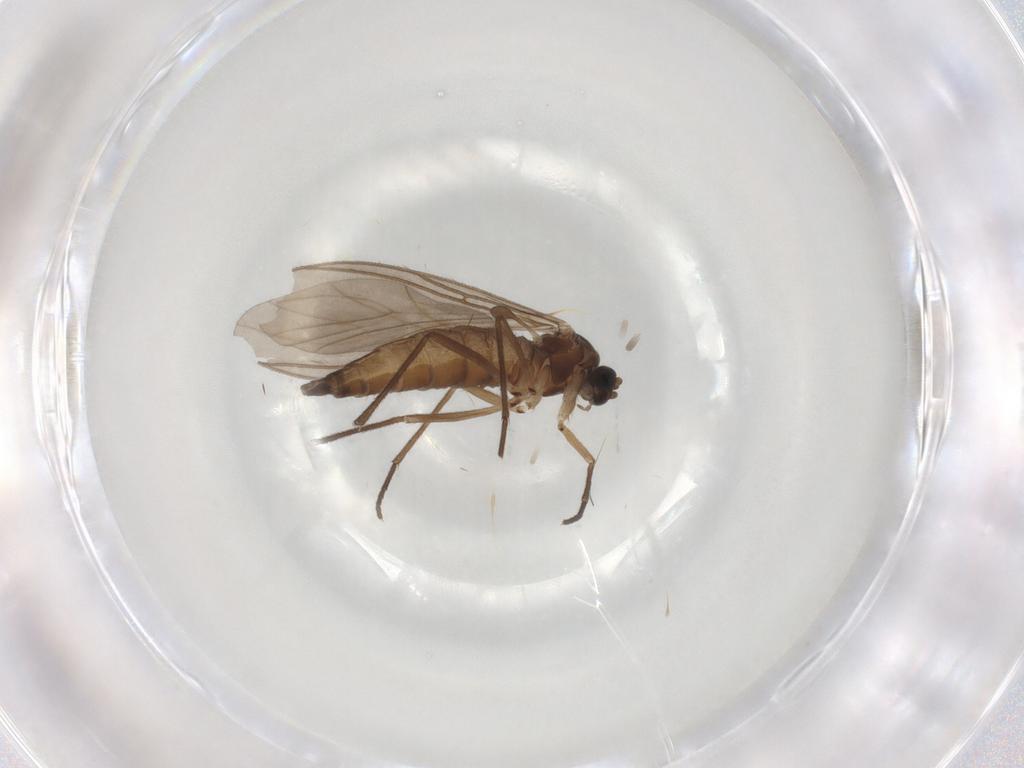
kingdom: Animalia
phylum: Arthropoda
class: Insecta
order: Diptera
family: Sciaridae
